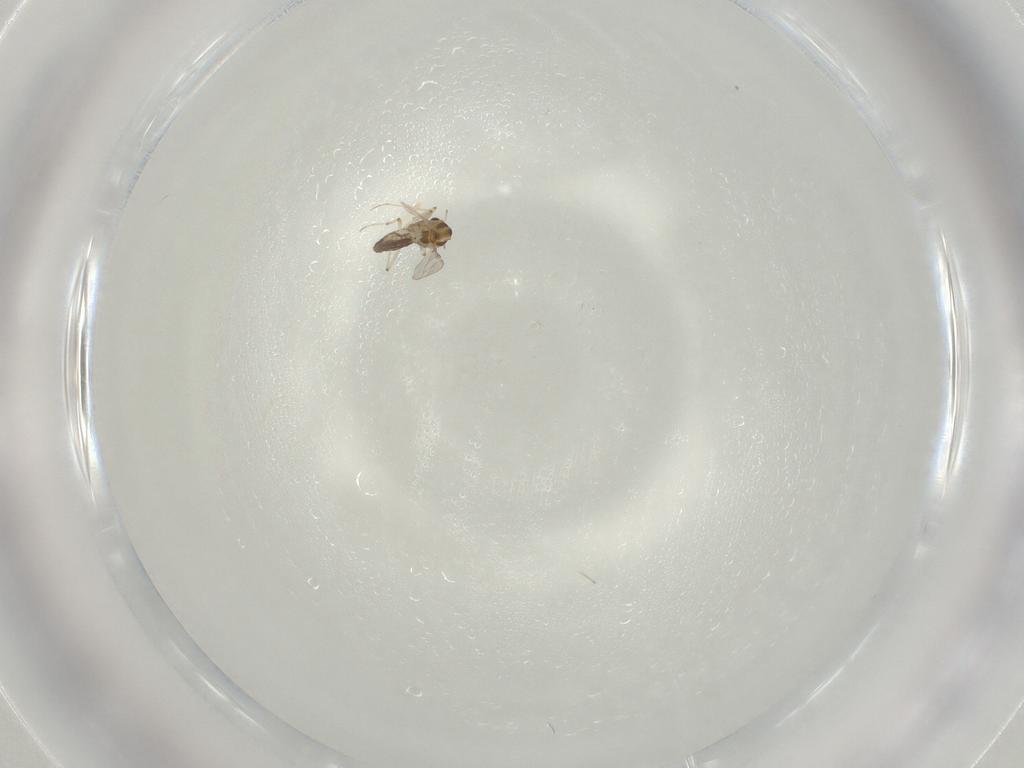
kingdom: Animalia
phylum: Arthropoda
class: Insecta
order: Diptera
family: Chironomidae
